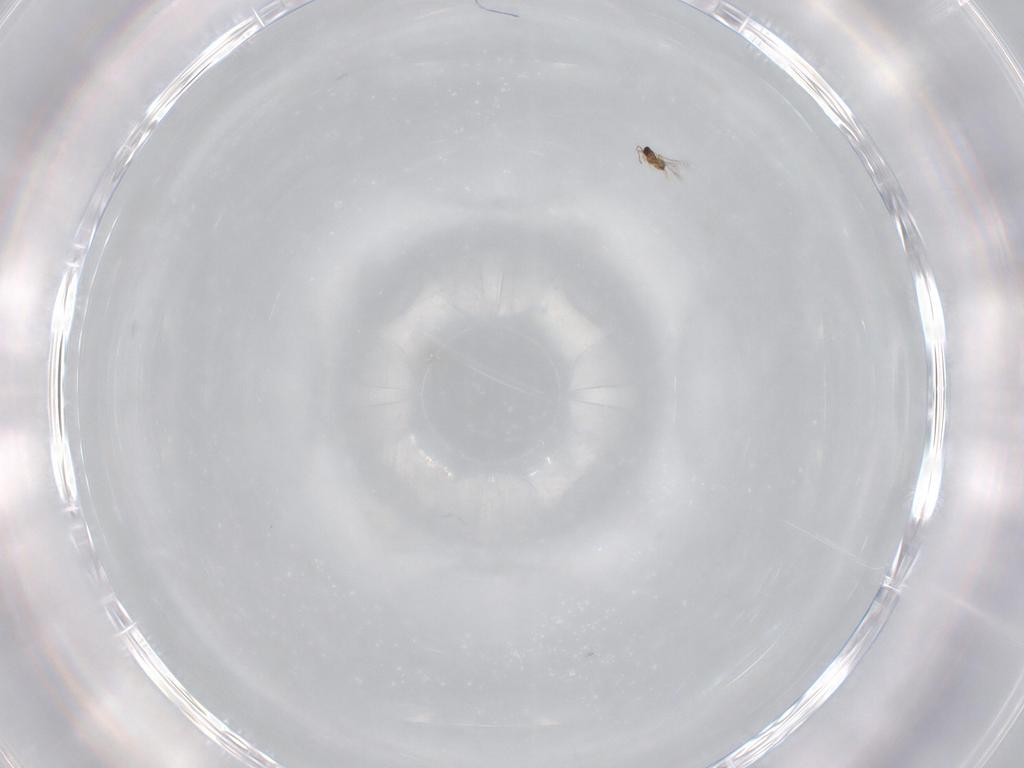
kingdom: Animalia
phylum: Arthropoda
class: Insecta
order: Hymenoptera
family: Mymaridae
